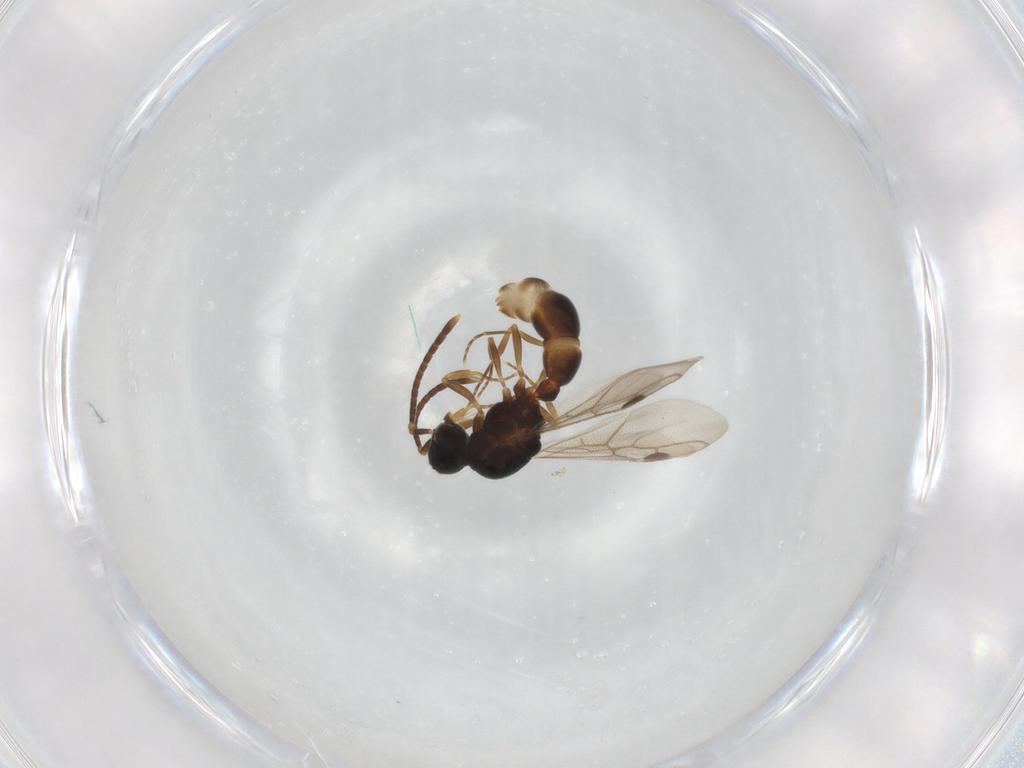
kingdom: Animalia
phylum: Arthropoda
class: Insecta
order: Hymenoptera
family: Formicidae
